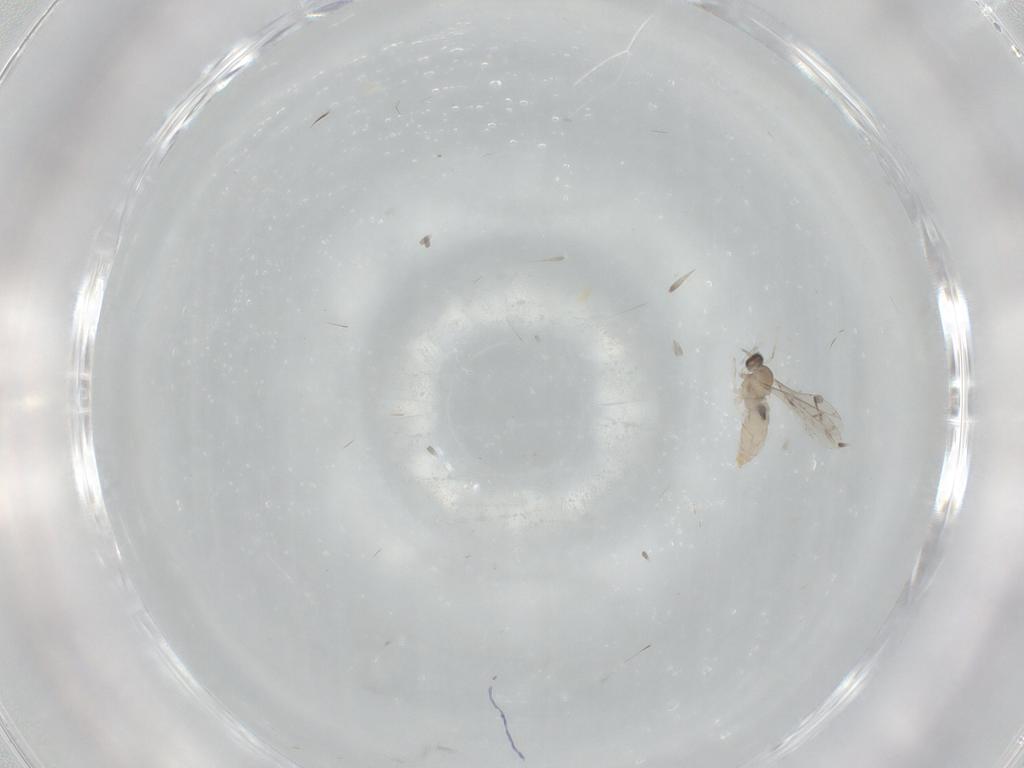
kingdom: Animalia
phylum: Arthropoda
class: Insecta
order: Diptera
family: Cecidomyiidae
